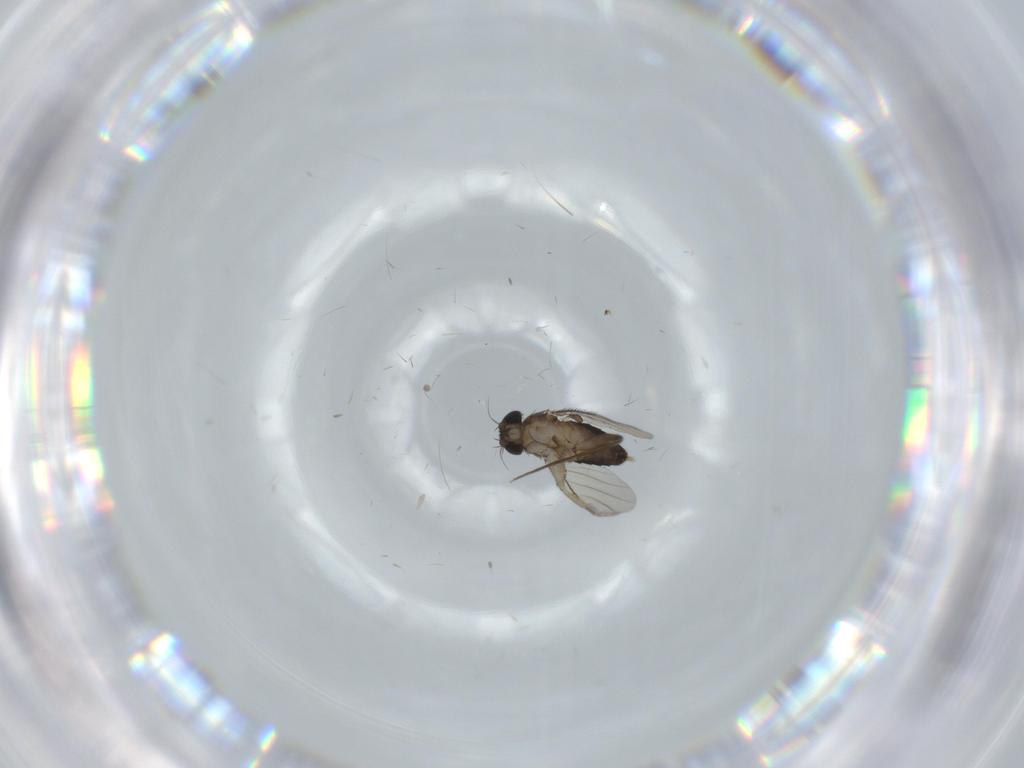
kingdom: Animalia
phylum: Arthropoda
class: Insecta
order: Diptera
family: Cecidomyiidae
